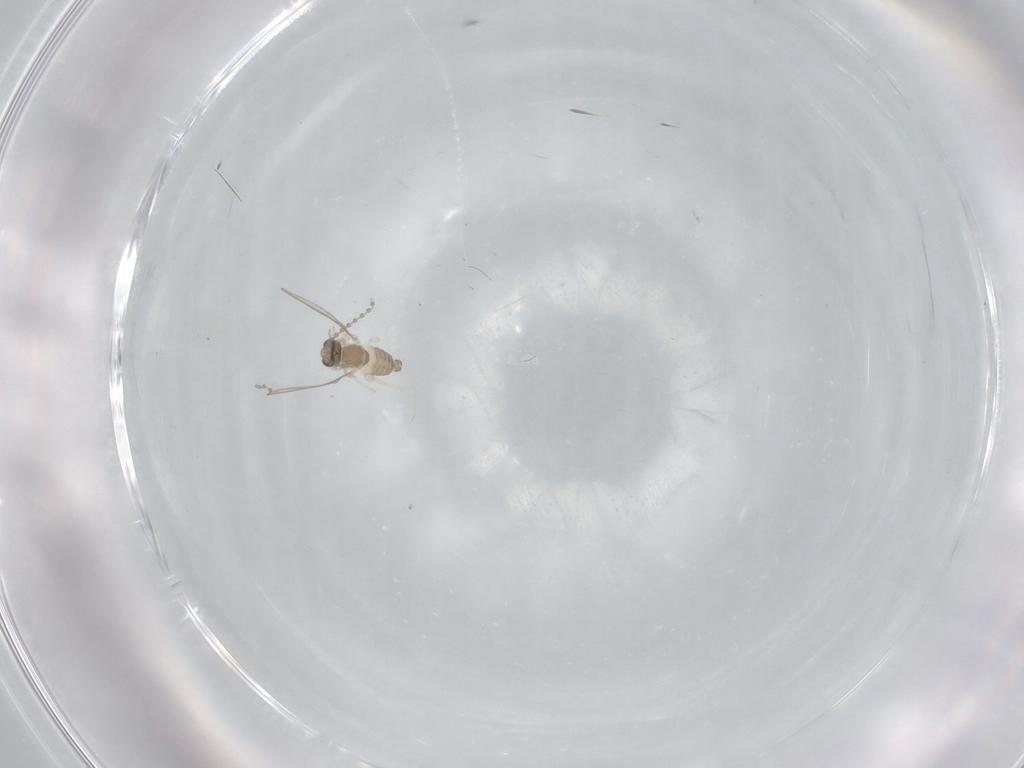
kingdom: Animalia
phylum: Arthropoda
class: Insecta
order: Diptera
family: Cecidomyiidae
